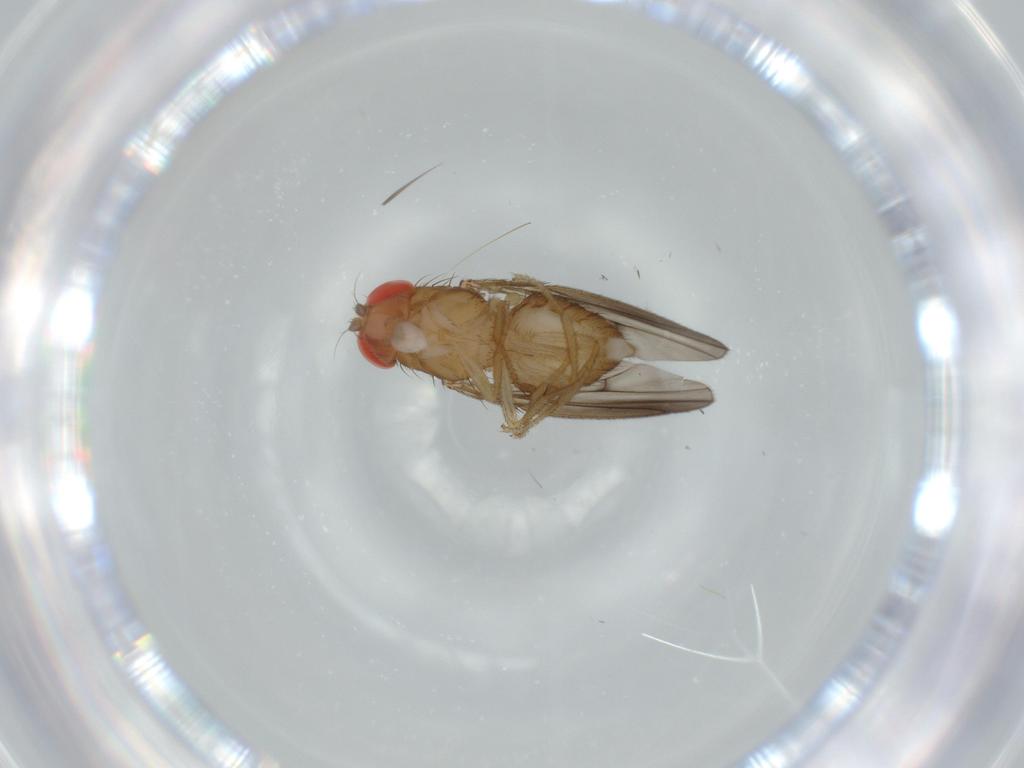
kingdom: Animalia
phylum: Arthropoda
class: Insecta
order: Diptera
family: Drosophilidae
